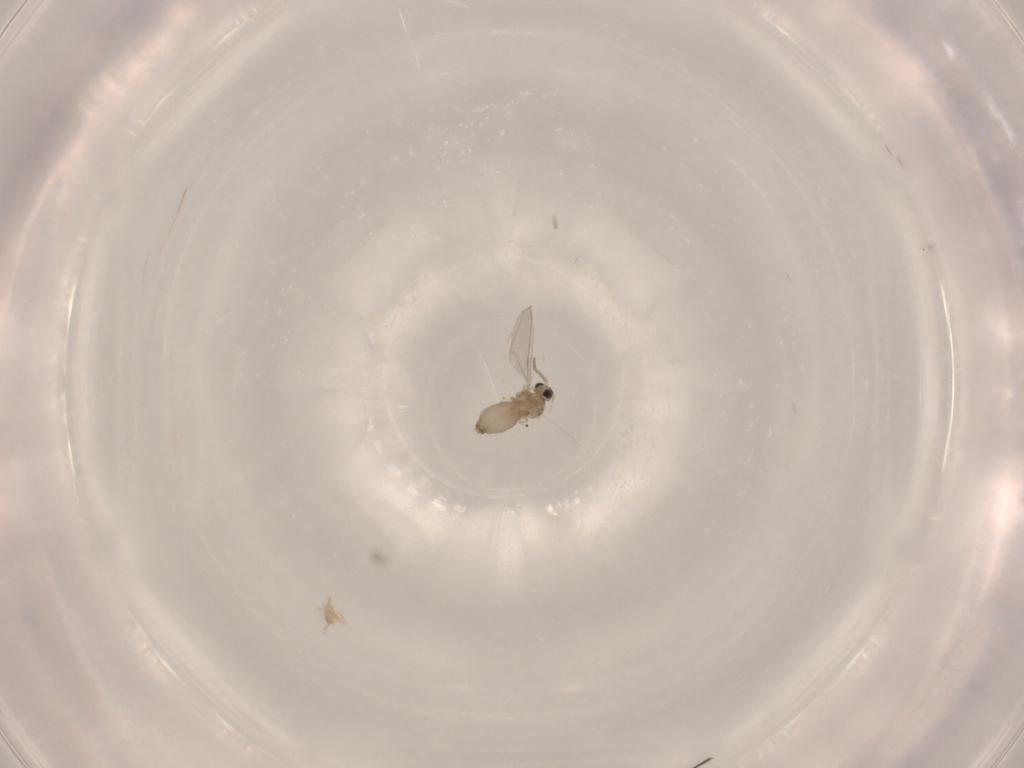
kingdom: Animalia
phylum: Arthropoda
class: Insecta
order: Diptera
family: Cecidomyiidae
